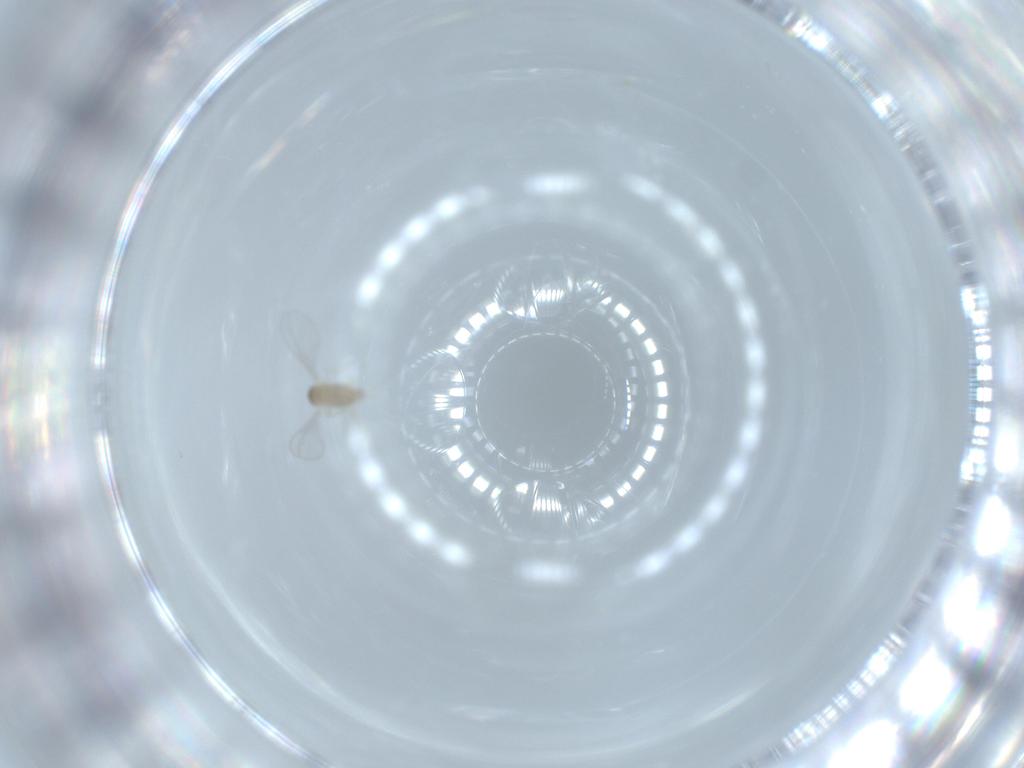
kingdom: Animalia
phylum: Arthropoda
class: Insecta
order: Diptera
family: Cecidomyiidae
